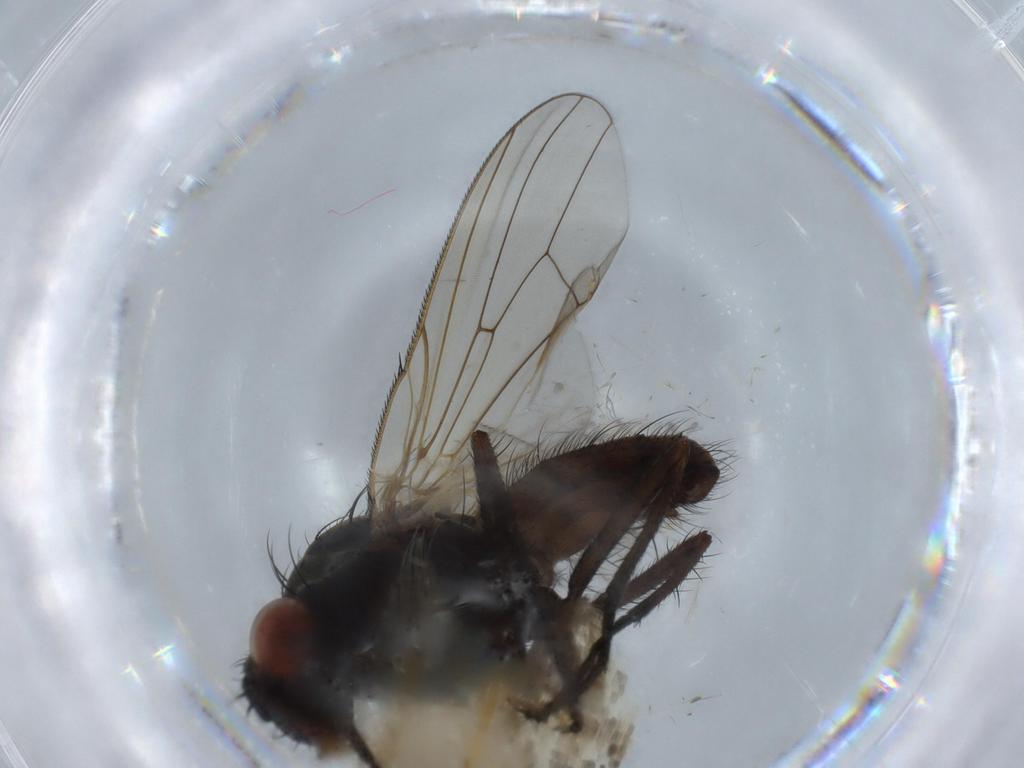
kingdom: Animalia
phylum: Arthropoda
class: Insecta
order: Diptera
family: Anthomyiidae
